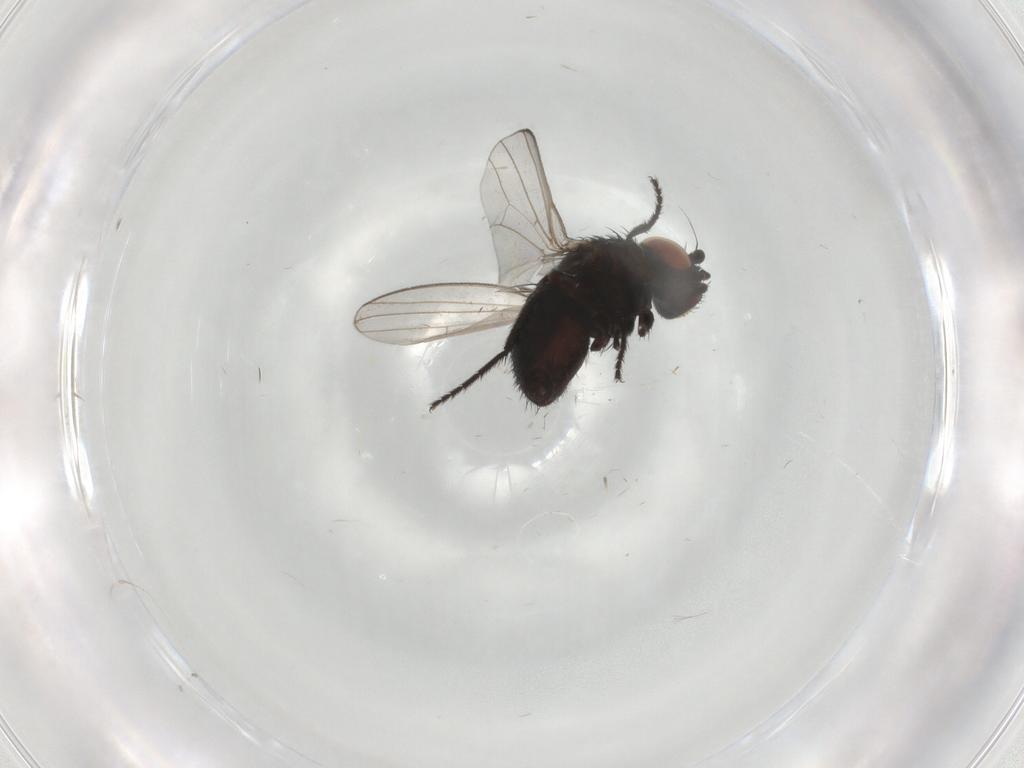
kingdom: Animalia
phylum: Arthropoda
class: Insecta
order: Diptera
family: Milichiidae
